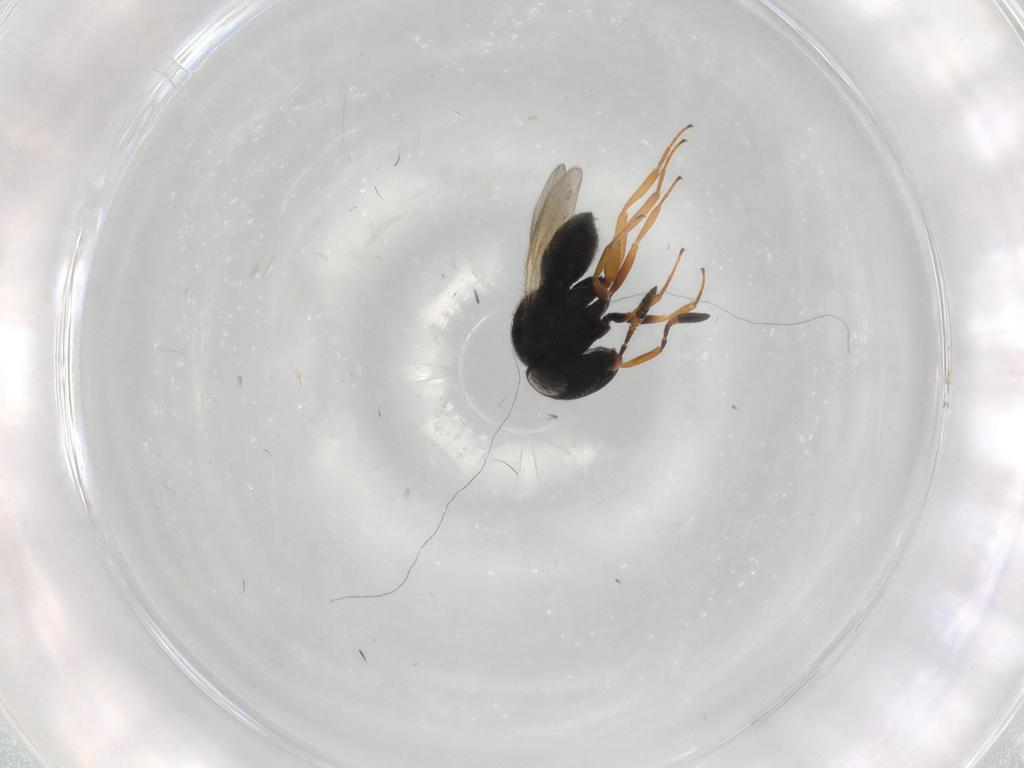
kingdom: Animalia
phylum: Arthropoda
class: Insecta
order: Hymenoptera
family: Scelionidae
